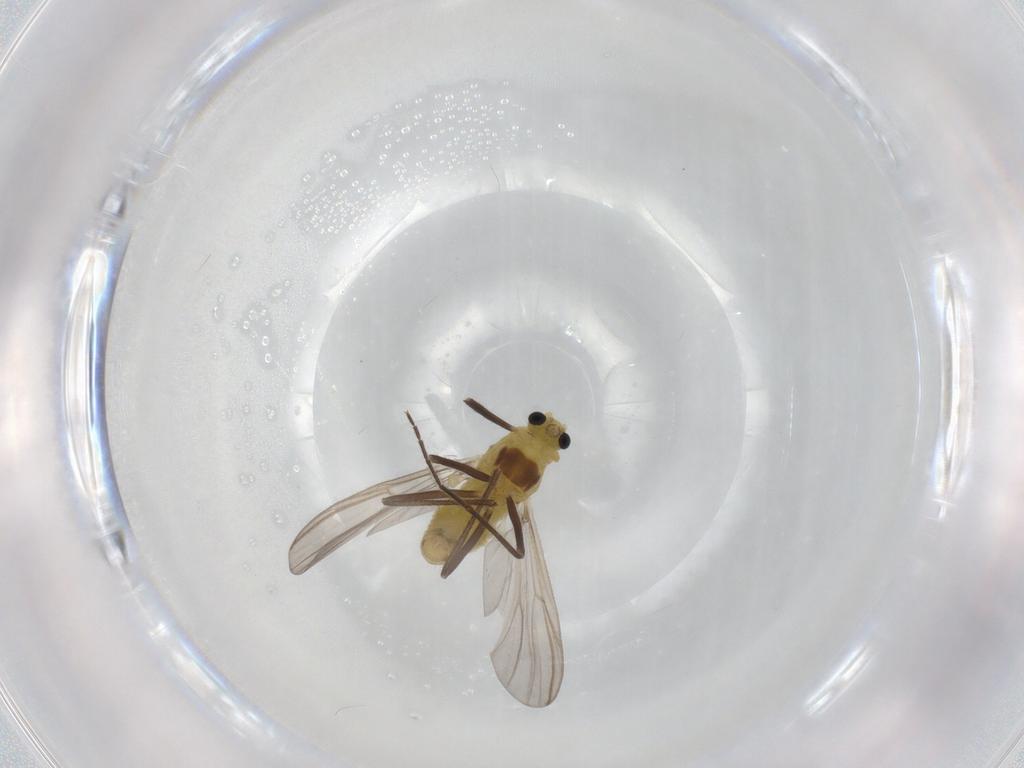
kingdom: Animalia
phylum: Arthropoda
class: Insecta
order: Diptera
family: Chironomidae
